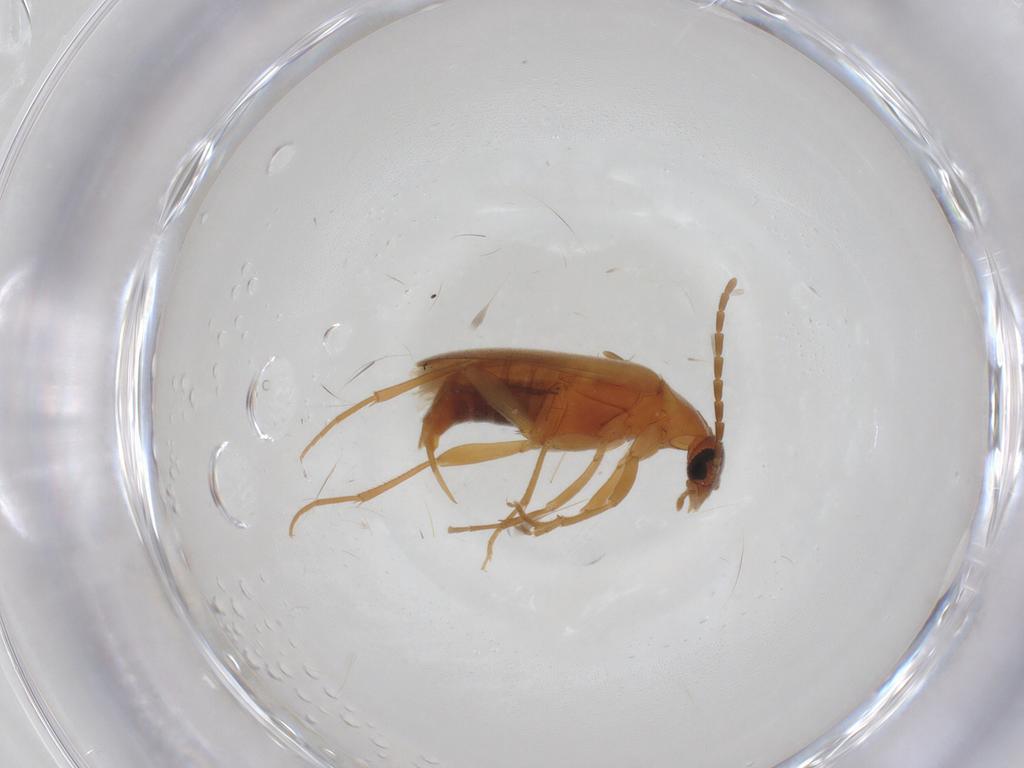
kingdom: Animalia
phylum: Arthropoda
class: Insecta
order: Coleoptera
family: Scraptiidae
